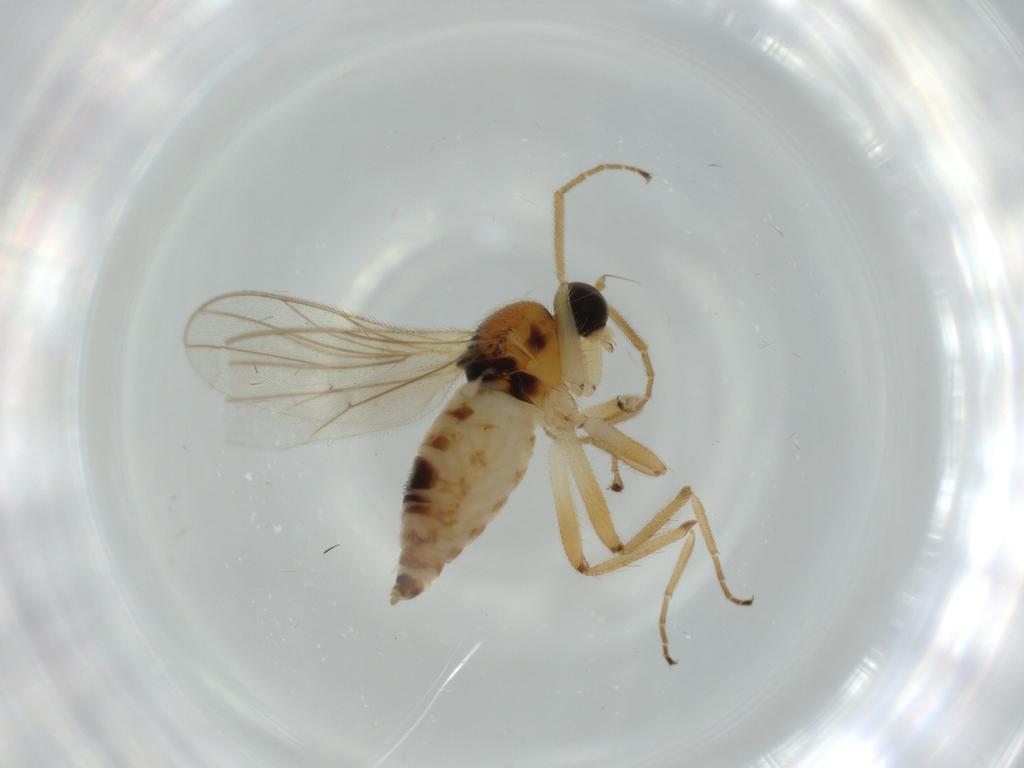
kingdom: Animalia
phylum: Arthropoda
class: Insecta
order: Diptera
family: Hybotidae
